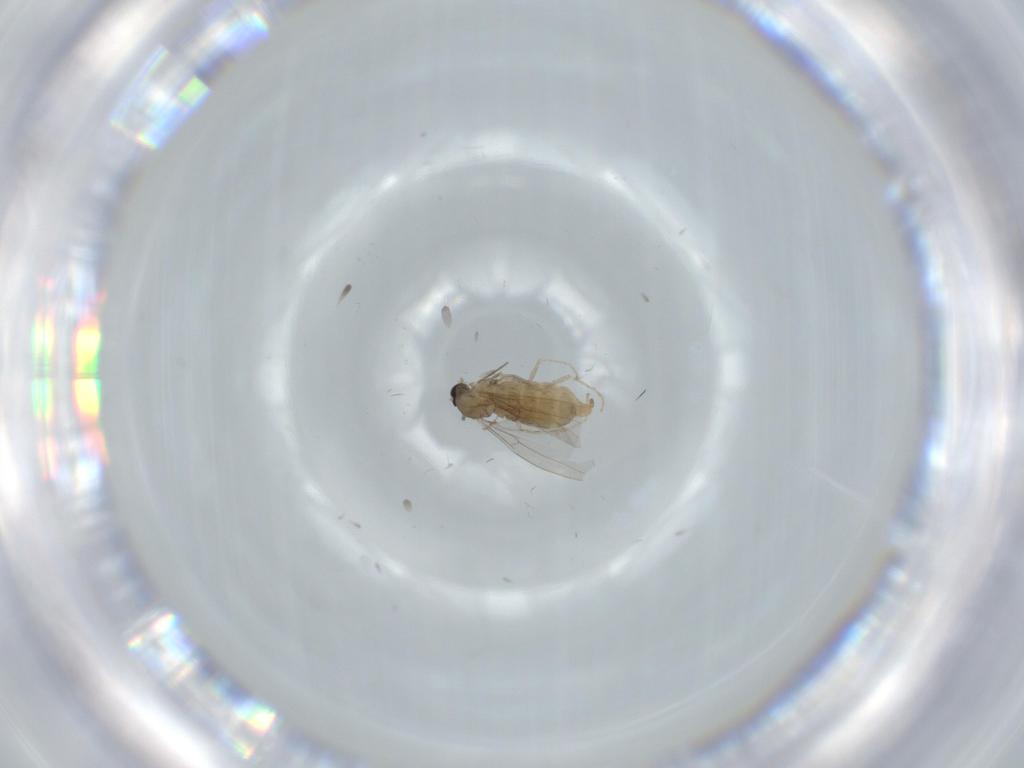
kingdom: Animalia
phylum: Arthropoda
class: Insecta
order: Diptera
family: Cecidomyiidae
